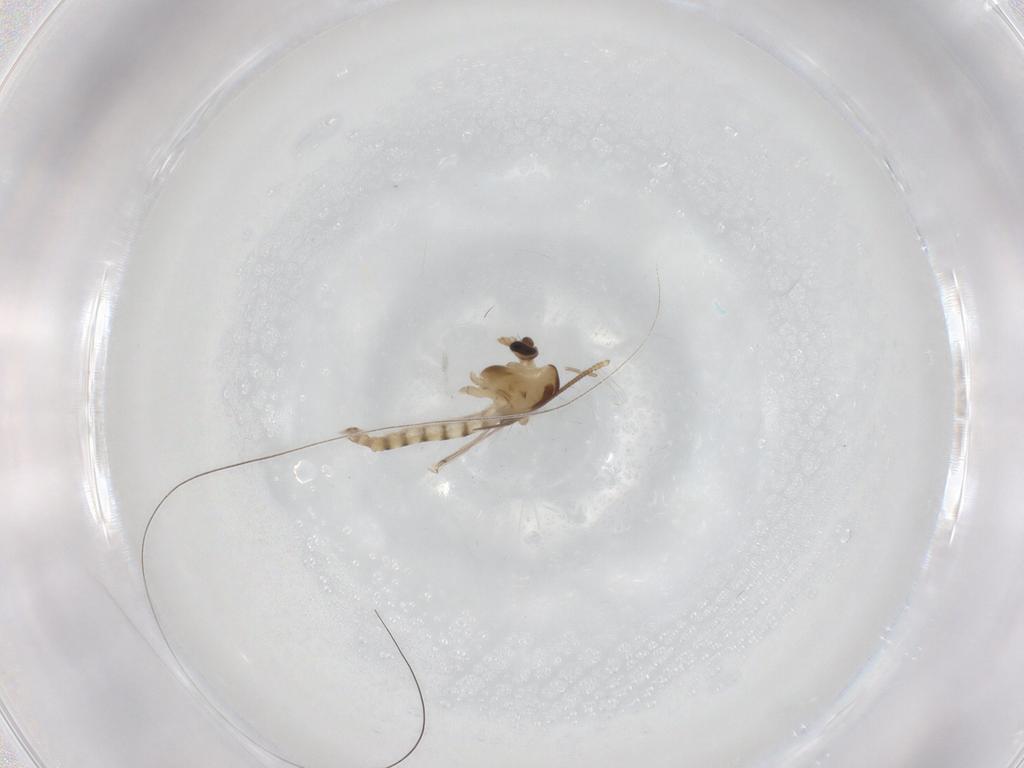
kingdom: Animalia
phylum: Arthropoda
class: Insecta
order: Diptera
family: Chironomidae
